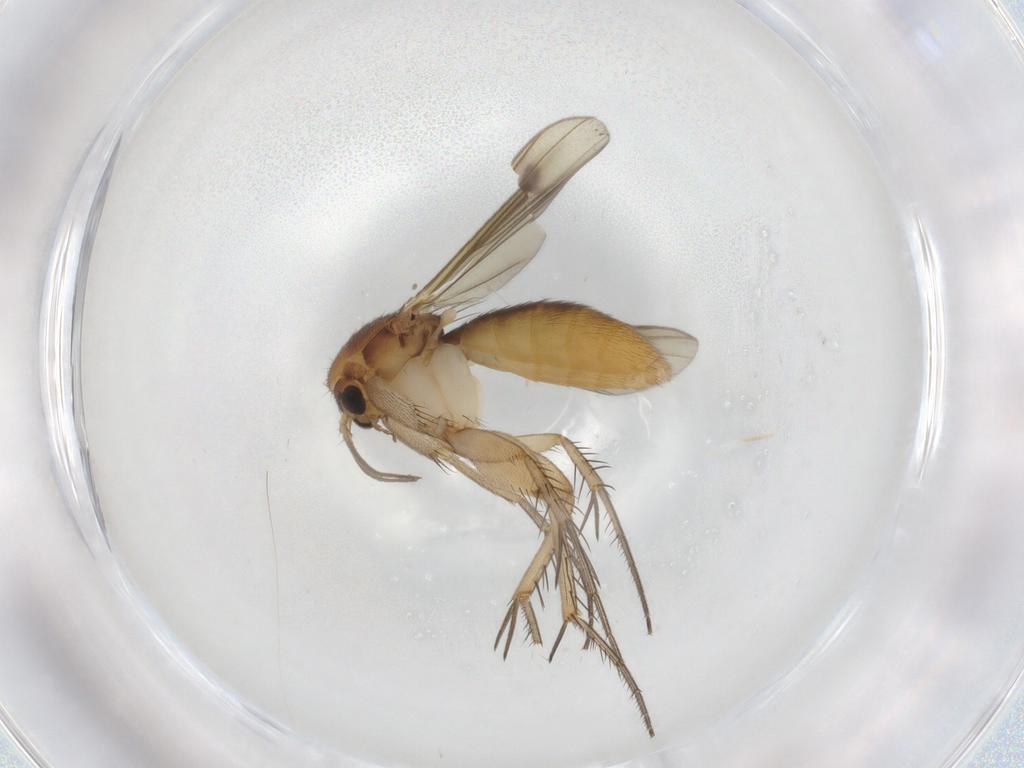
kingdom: Animalia
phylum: Arthropoda
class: Insecta
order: Diptera
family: Mycetophilidae
